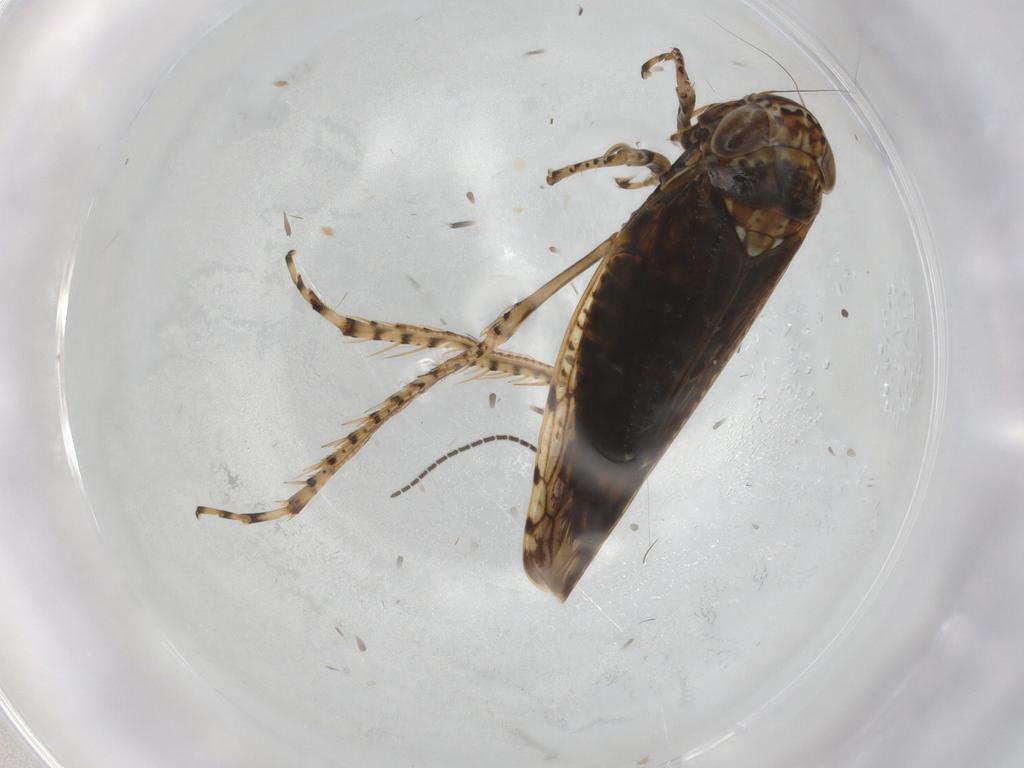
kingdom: Animalia
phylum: Arthropoda
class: Insecta
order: Hemiptera
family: Cicadellidae
